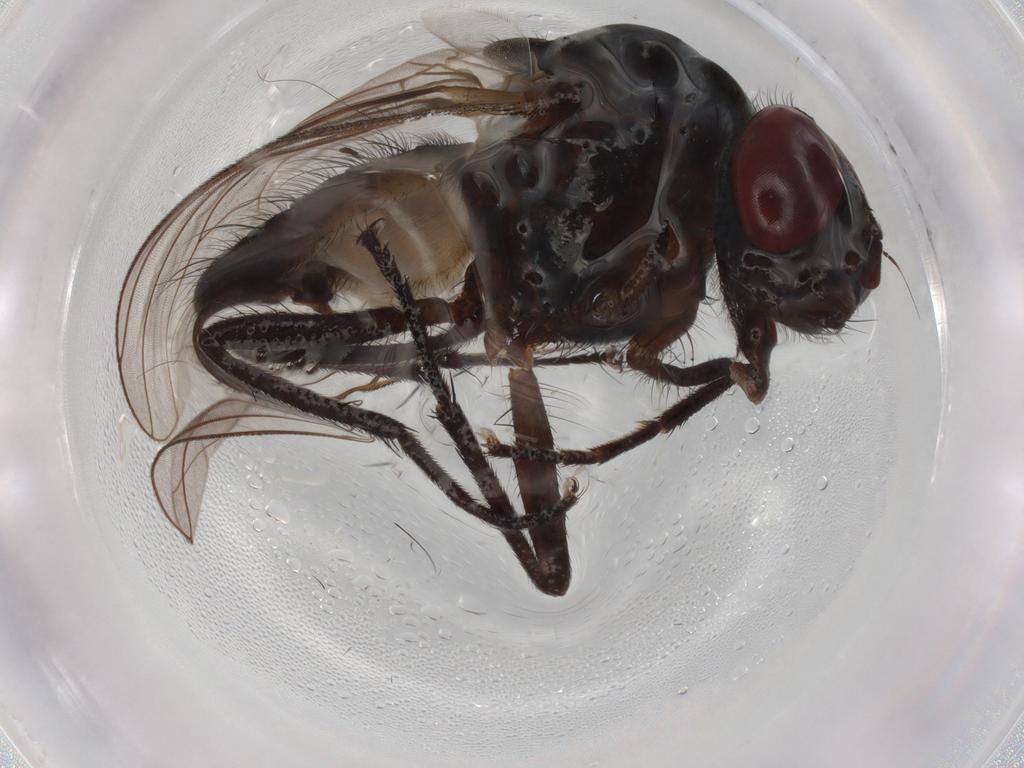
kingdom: Animalia
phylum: Arthropoda
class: Insecta
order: Diptera
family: Anthomyiidae
